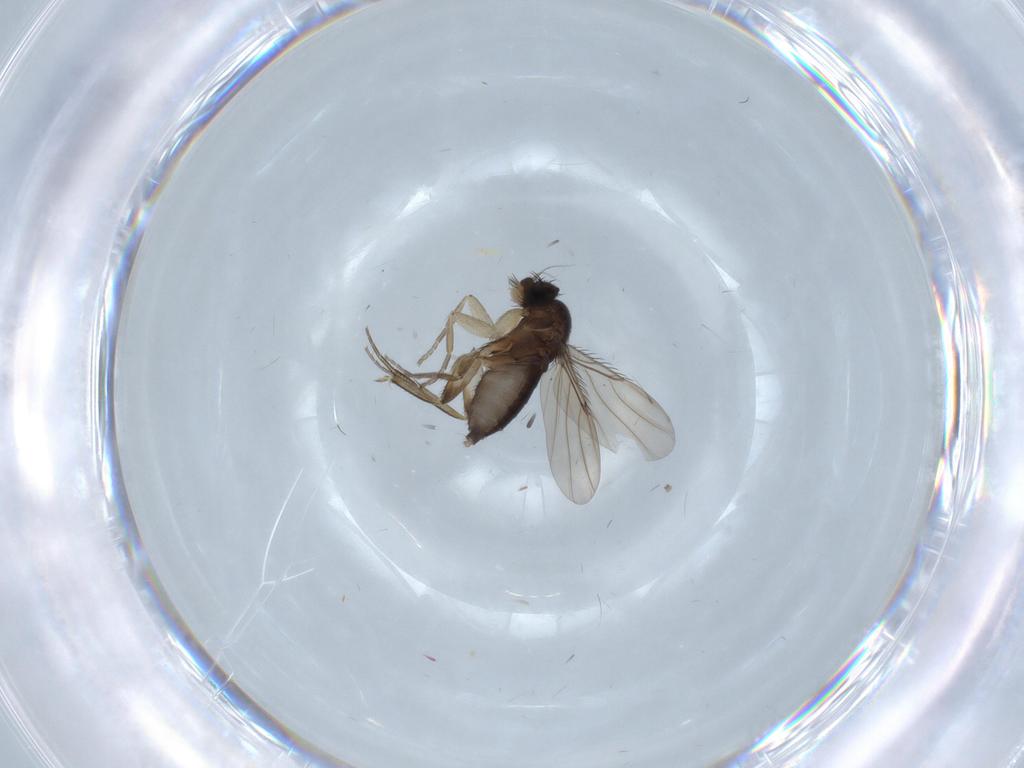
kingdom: Animalia
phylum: Arthropoda
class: Insecta
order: Diptera
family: Phoridae
